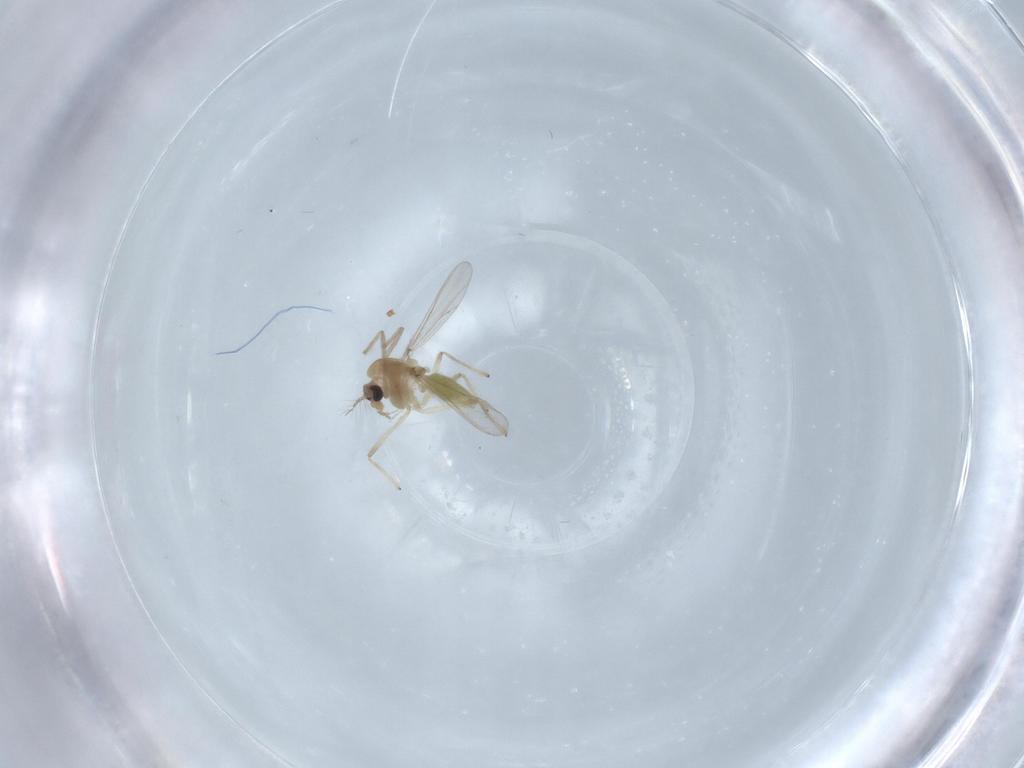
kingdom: Animalia
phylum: Arthropoda
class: Insecta
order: Diptera
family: Chironomidae
